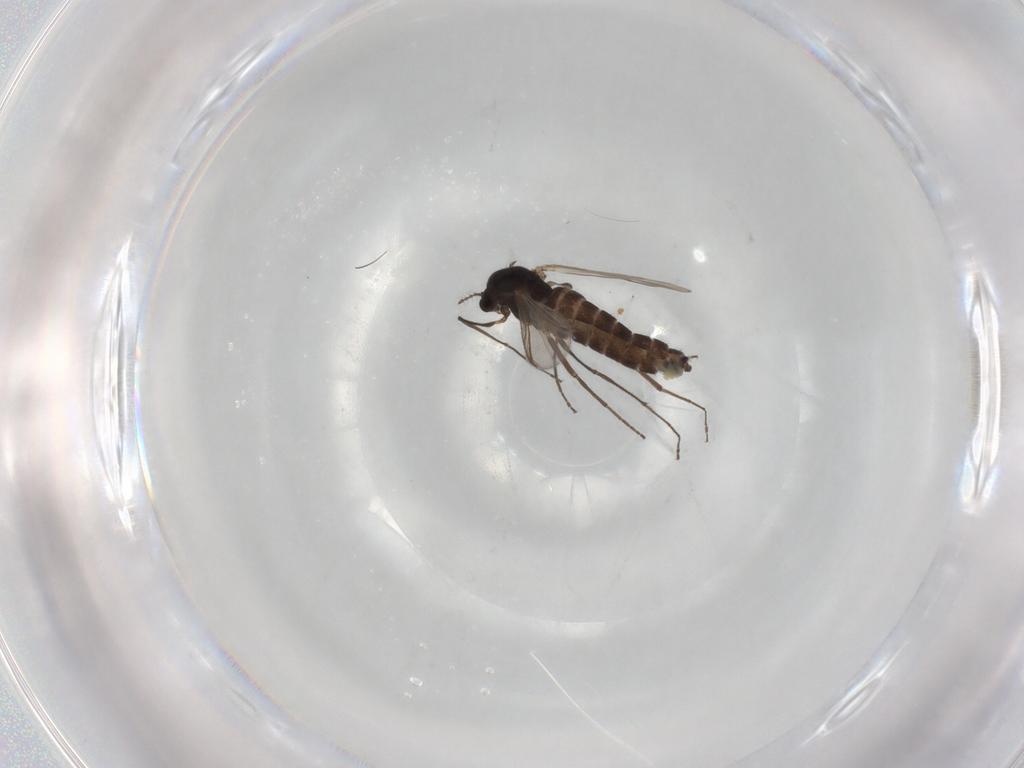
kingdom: Animalia
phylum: Arthropoda
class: Insecta
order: Diptera
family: Chironomidae
